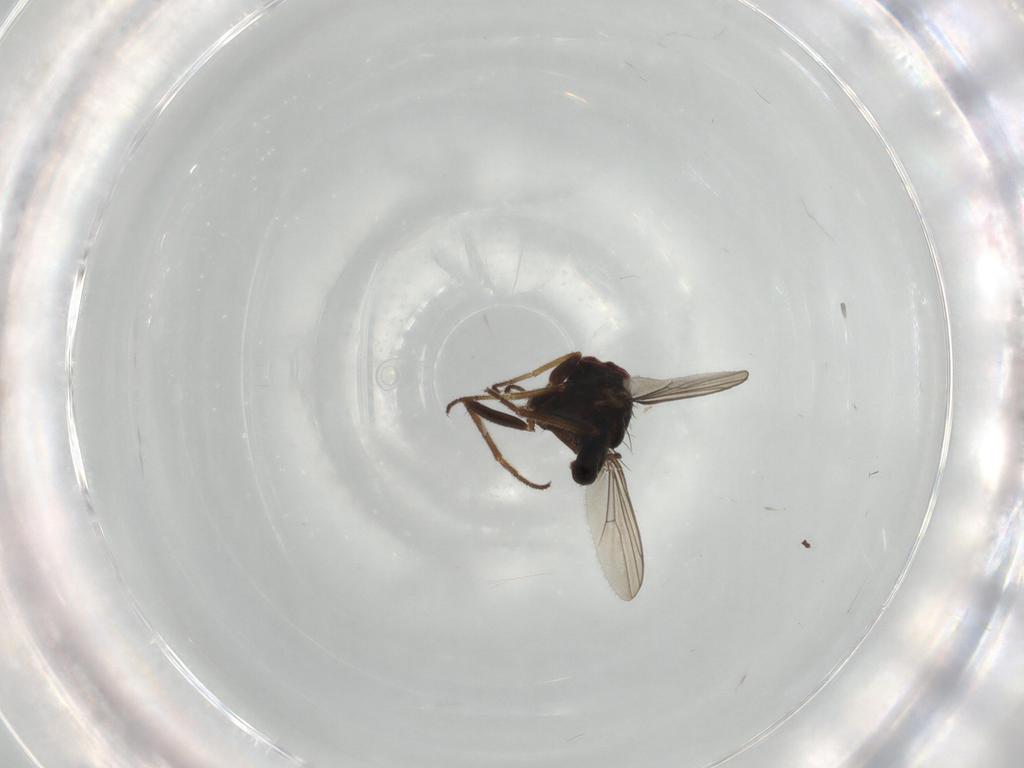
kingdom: Animalia
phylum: Arthropoda
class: Insecta
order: Diptera
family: Dolichopodidae
